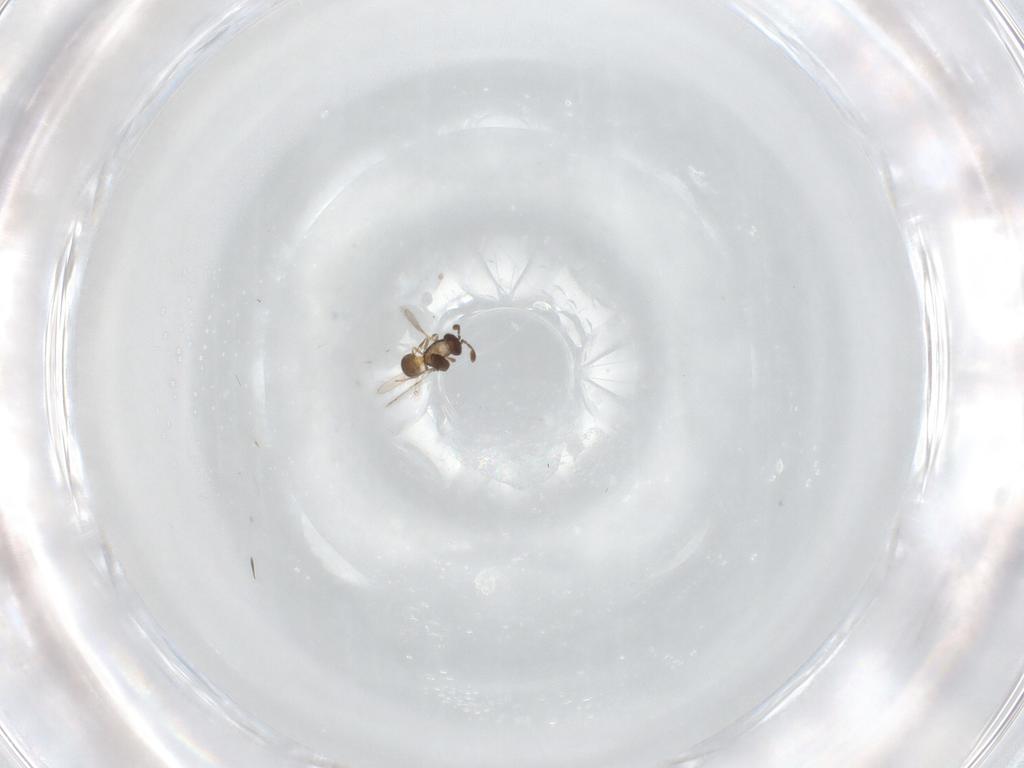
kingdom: Animalia
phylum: Arthropoda
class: Insecta
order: Hymenoptera
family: Scelionidae
